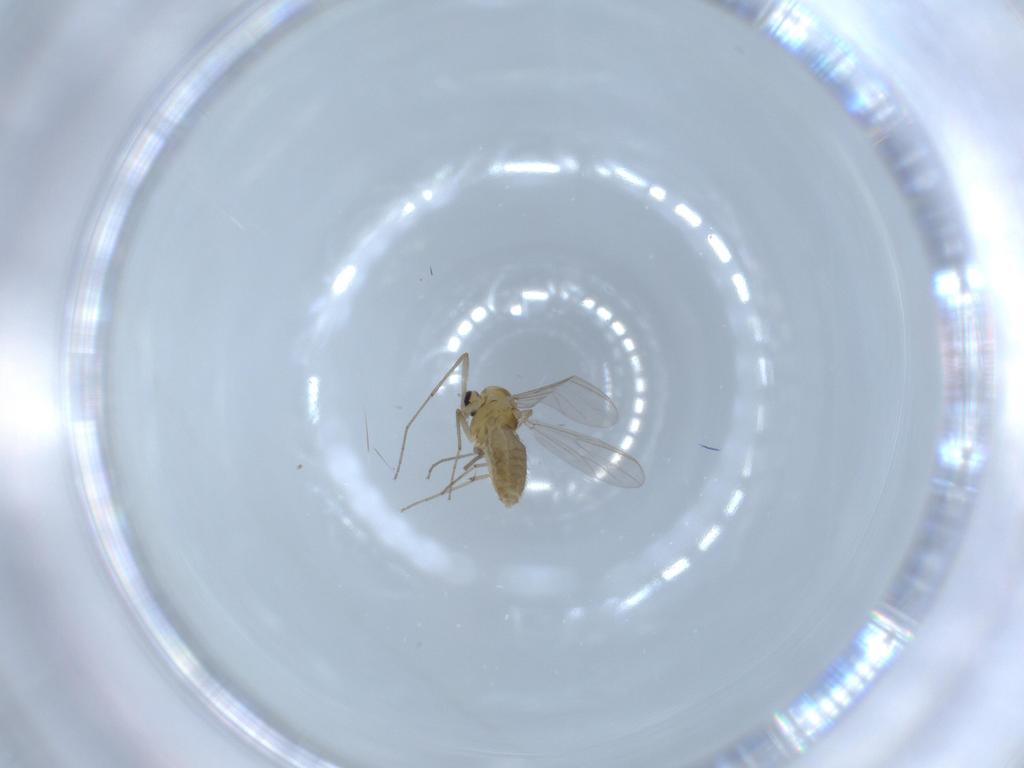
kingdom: Animalia
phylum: Arthropoda
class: Insecta
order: Diptera
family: Chironomidae
